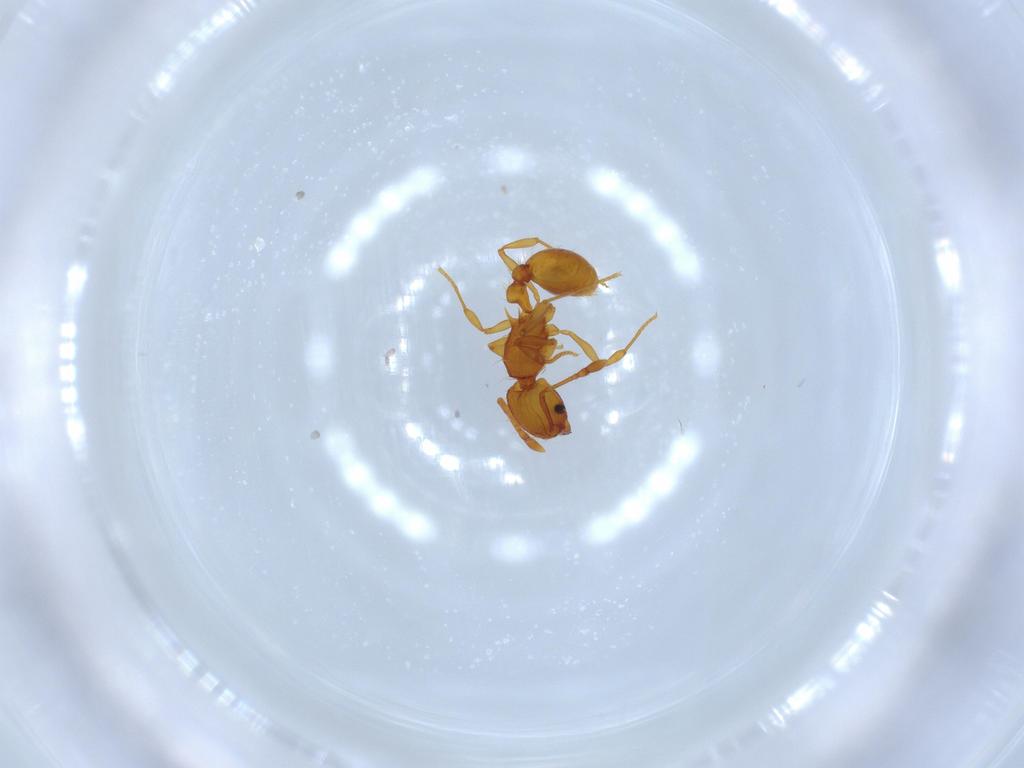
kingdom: Animalia
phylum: Arthropoda
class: Insecta
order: Hymenoptera
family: Formicidae
